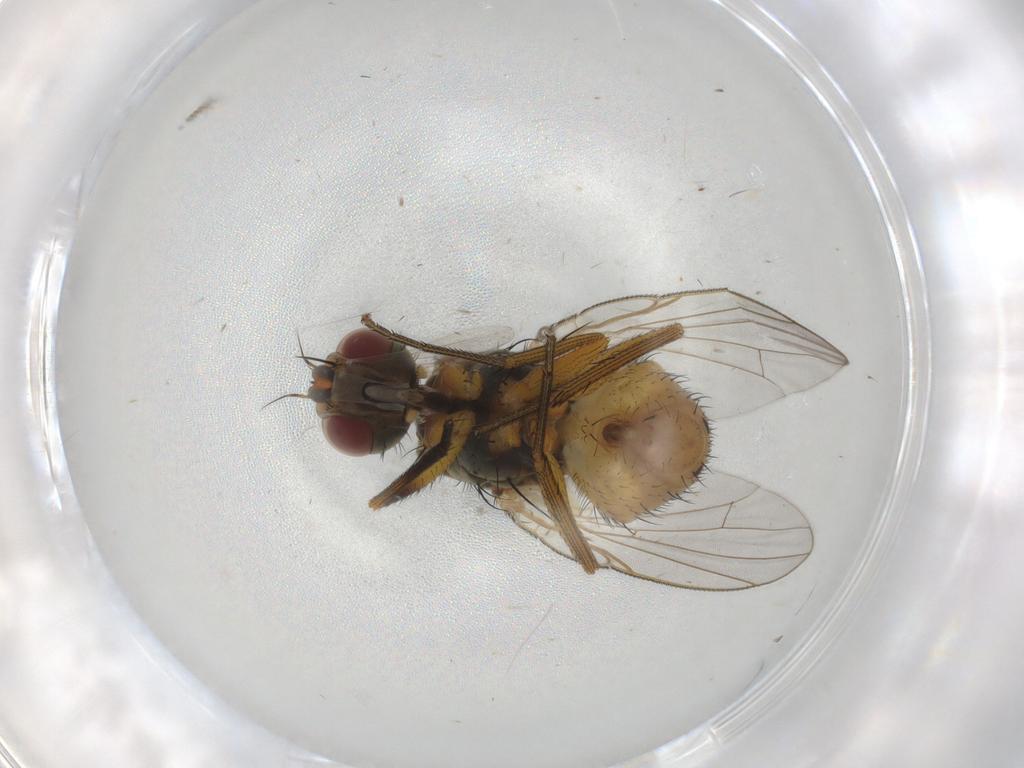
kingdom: Animalia
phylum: Arthropoda
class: Insecta
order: Diptera
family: Muscidae
